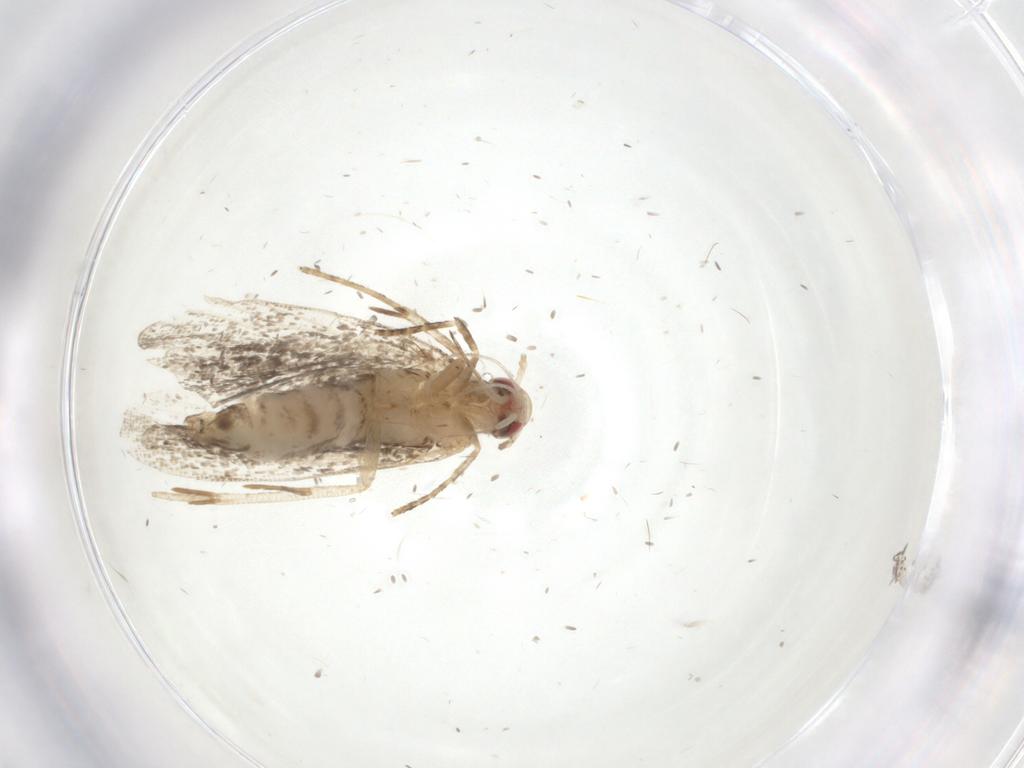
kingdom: Animalia
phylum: Arthropoda
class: Insecta
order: Lepidoptera
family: Gelechiidae
